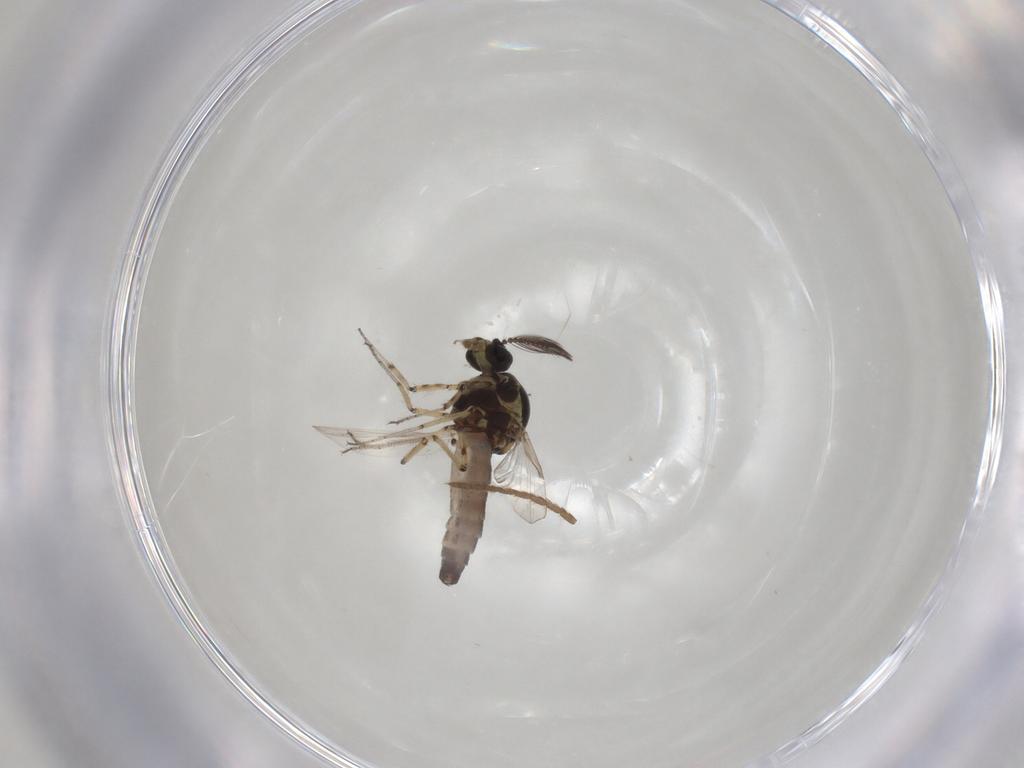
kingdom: Animalia
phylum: Arthropoda
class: Insecta
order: Diptera
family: Ceratopogonidae
